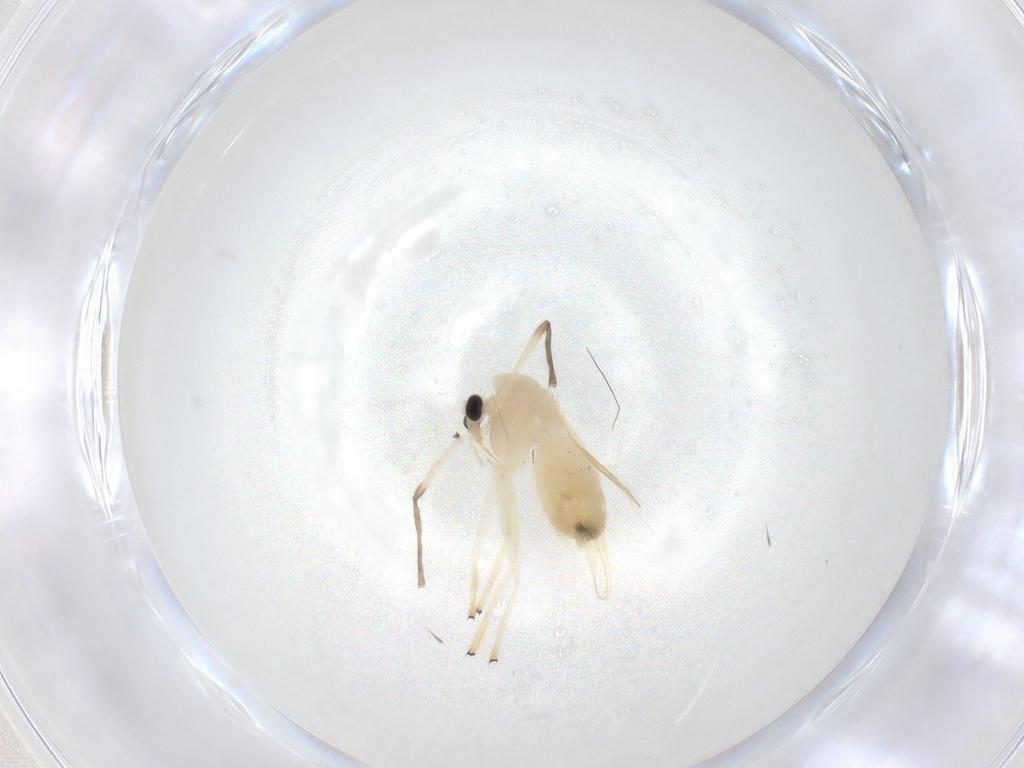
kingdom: Animalia
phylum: Arthropoda
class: Insecta
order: Diptera
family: Chironomidae
